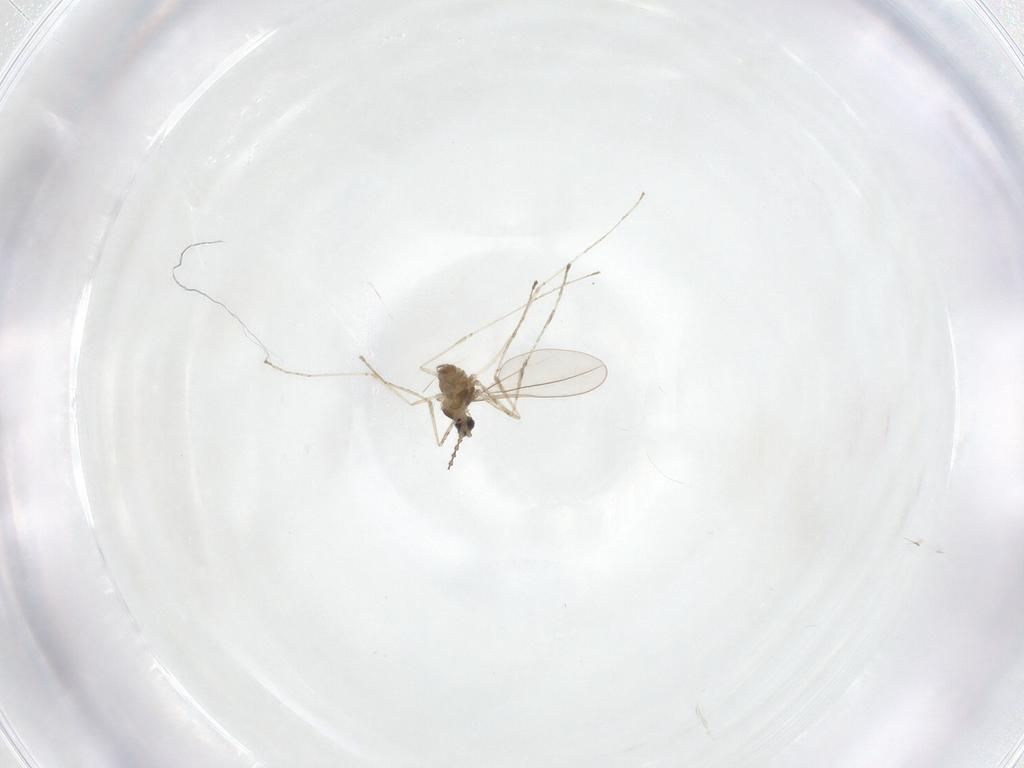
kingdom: Animalia
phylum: Arthropoda
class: Insecta
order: Diptera
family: Cecidomyiidae
